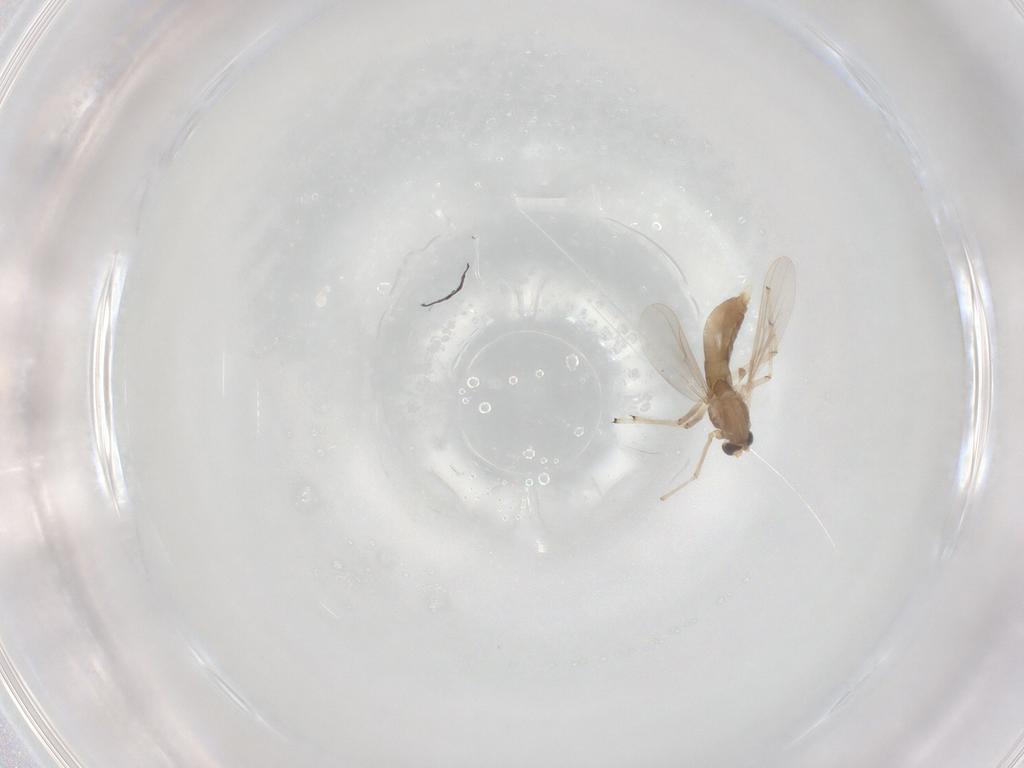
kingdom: Animalia
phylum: Arthropoda
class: Insecta
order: Diptera
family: Chironomidae
